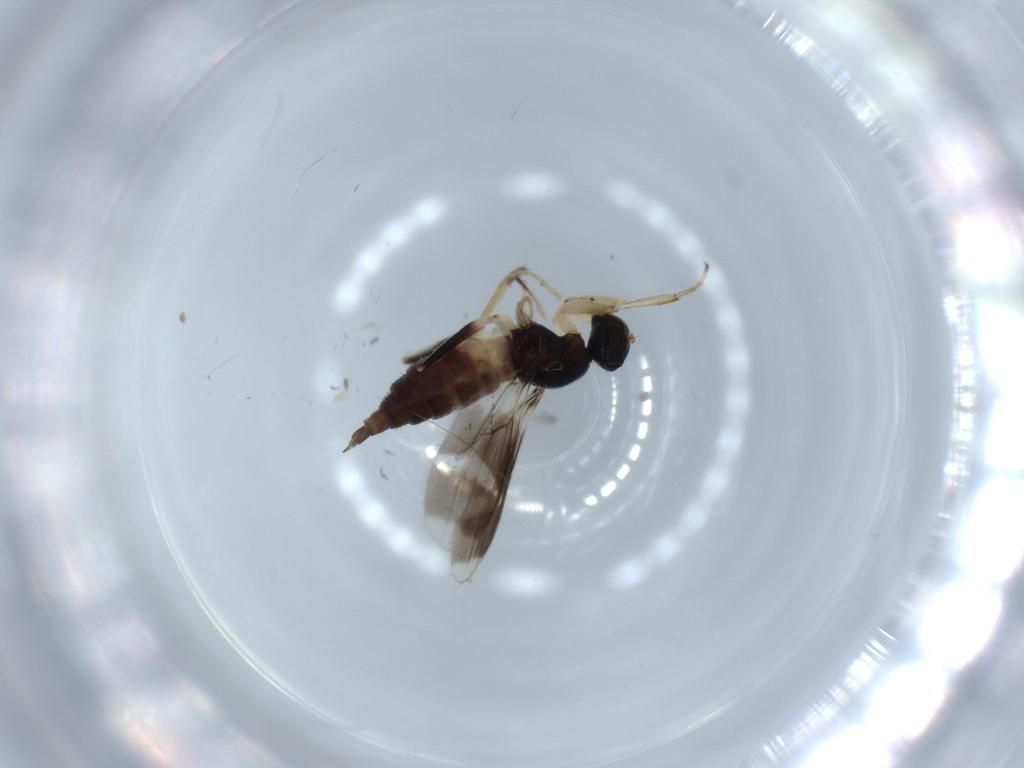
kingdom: Animalia
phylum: Arthropoda
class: Insecta
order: Diptera
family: Hybotidae
